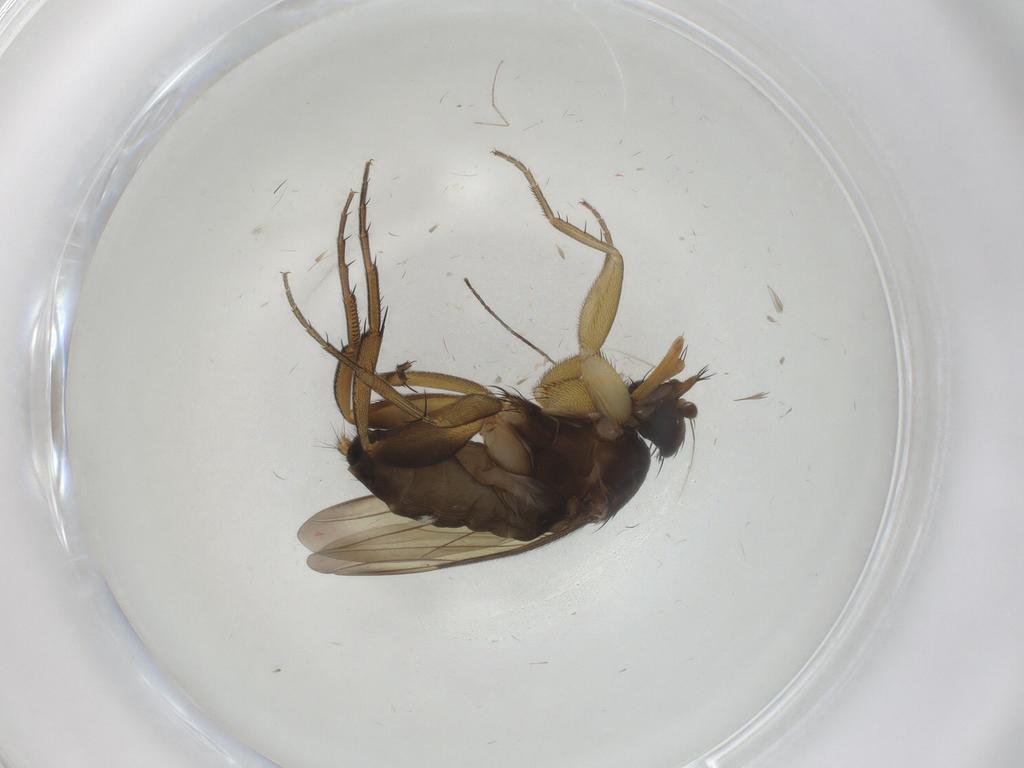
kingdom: Animalia
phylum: Arthropoda
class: Insecta
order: Diptera
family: Phoridae
